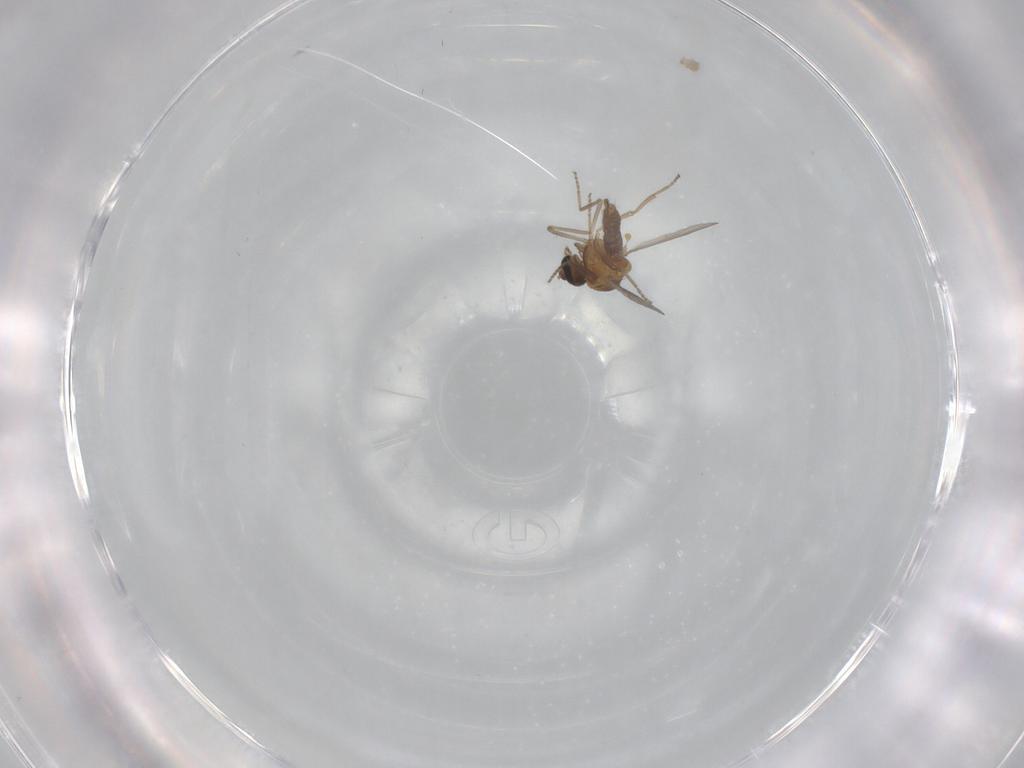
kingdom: Animalia
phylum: Arthropoda
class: Insecta
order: Diptera
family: Ceratopogonidae
